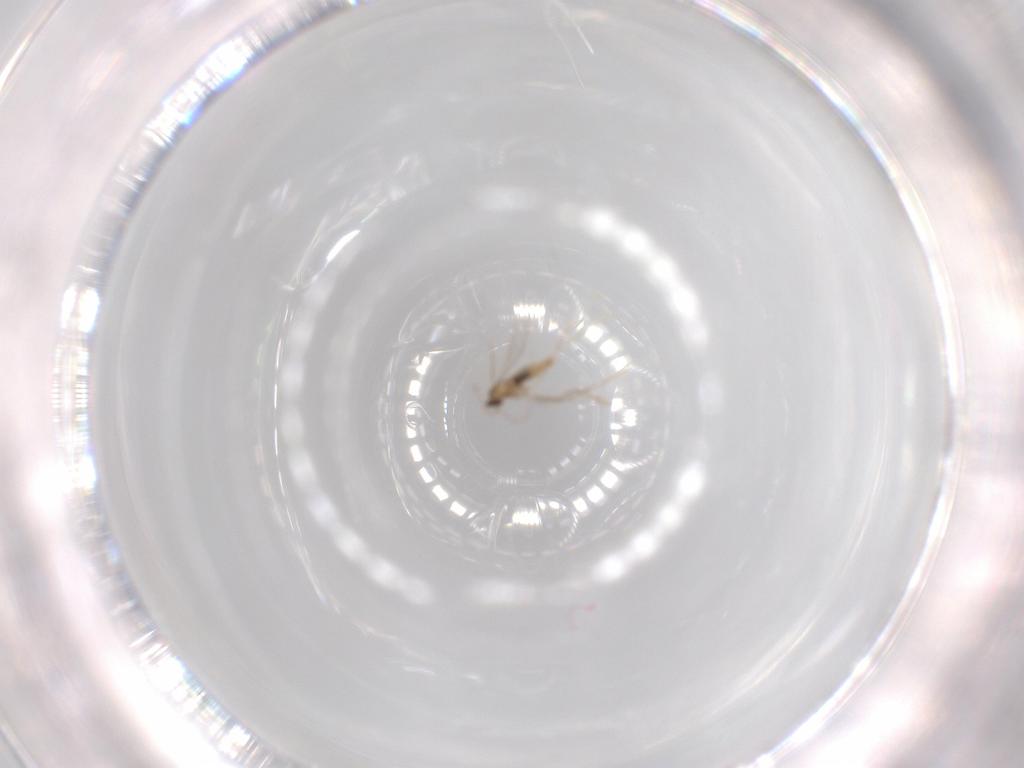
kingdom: Animalia
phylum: Arthropoda
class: Insecta
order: Diptera
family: Cecidomyiidae
